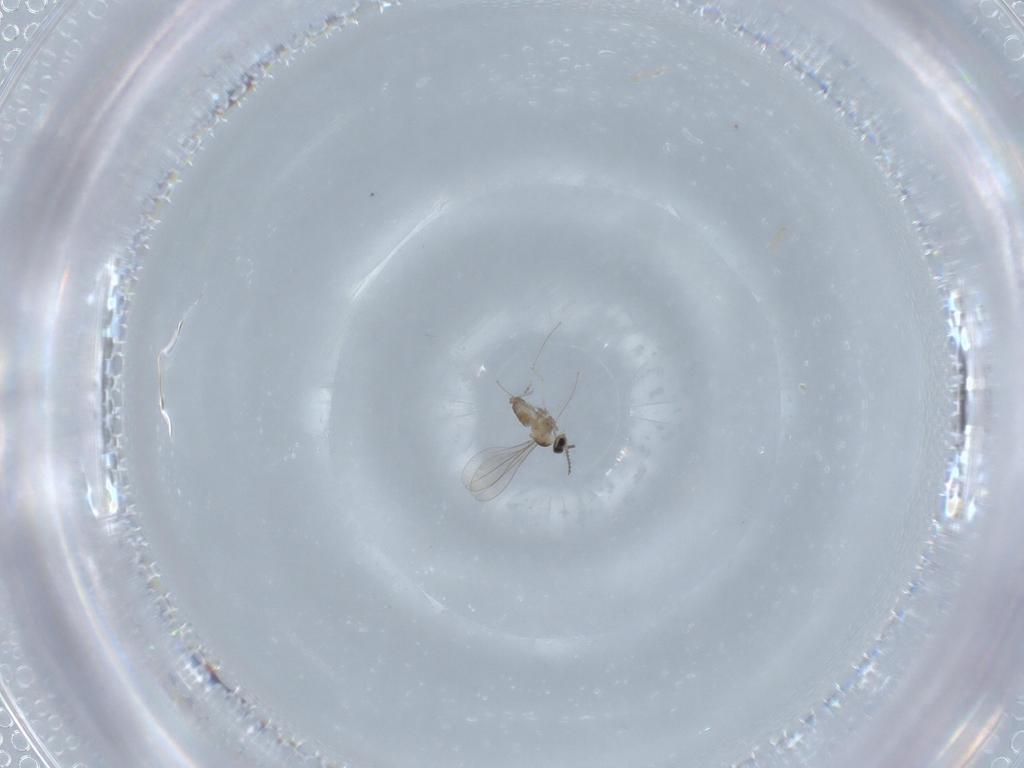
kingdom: Animalia
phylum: Arthropoda
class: Insecta
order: Diptera
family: Cecidomyiidae
